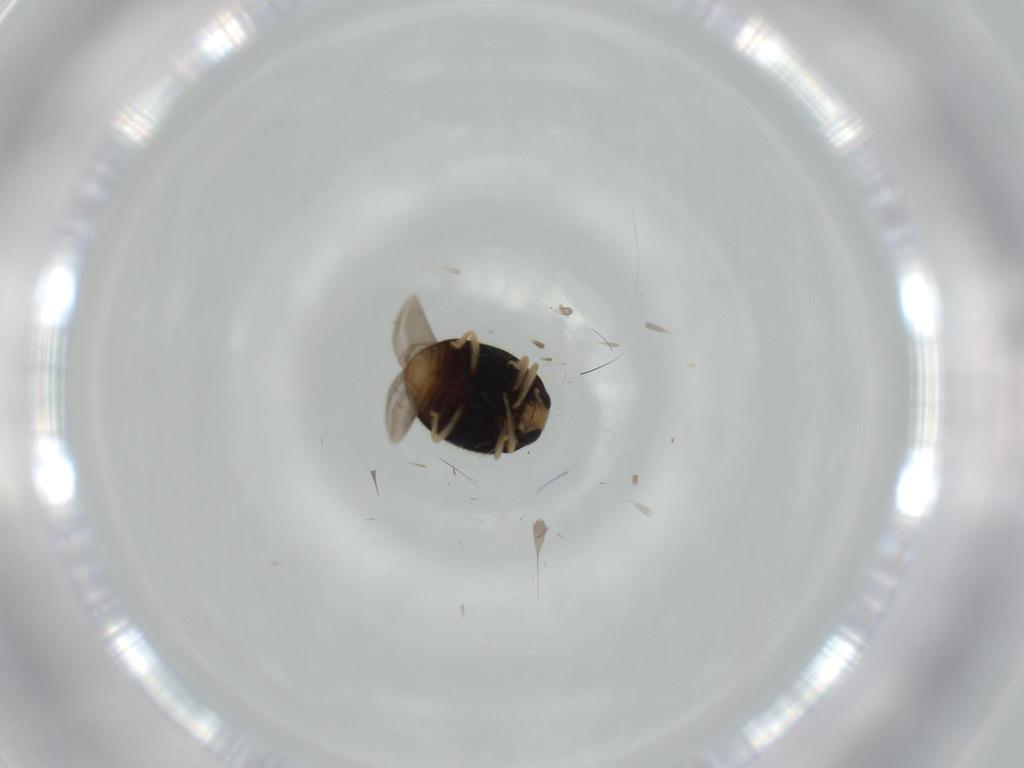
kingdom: Animalia
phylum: Arthropoda
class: Insecta
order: Coleoptera
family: Coccinellidae
